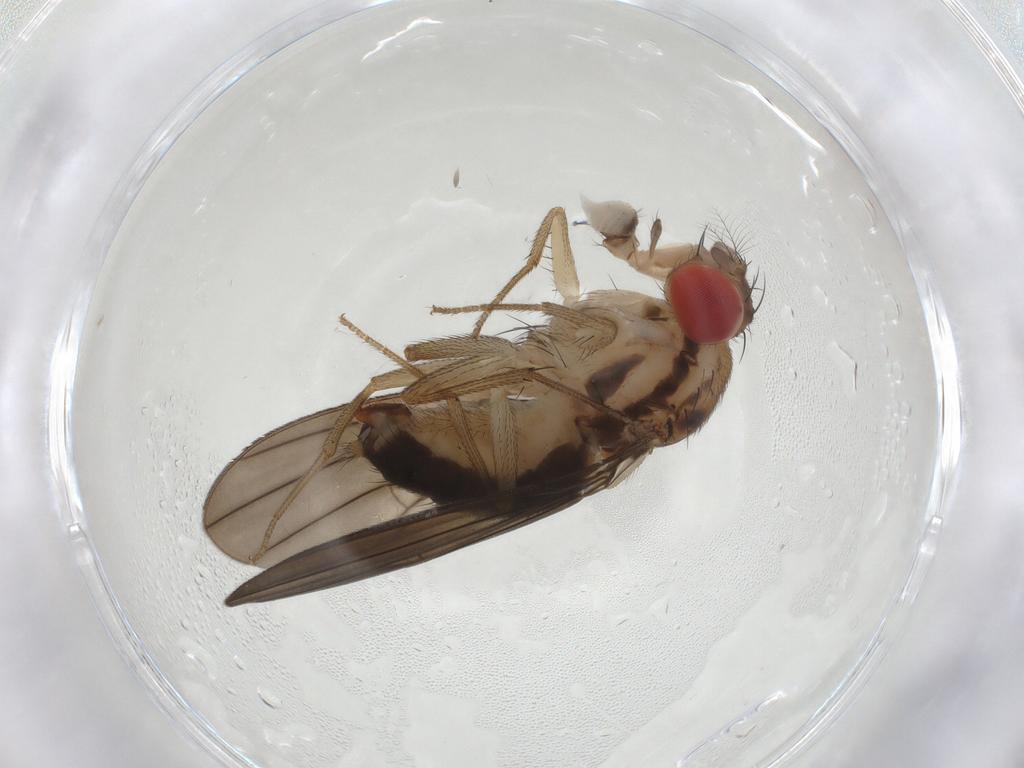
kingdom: Animalia
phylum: Arthropoda
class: Insecta
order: Diptera
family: Drosophilidae
